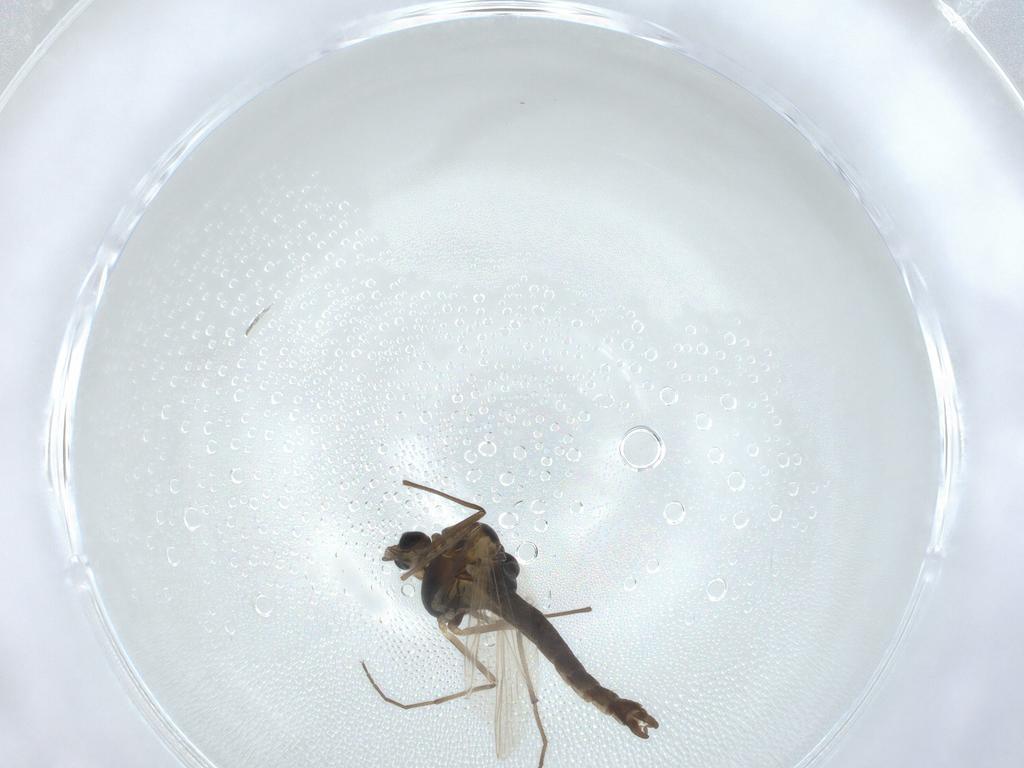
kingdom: Animalia
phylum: Arthropoda
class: Insecta
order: Diptera
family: Chironomidae
